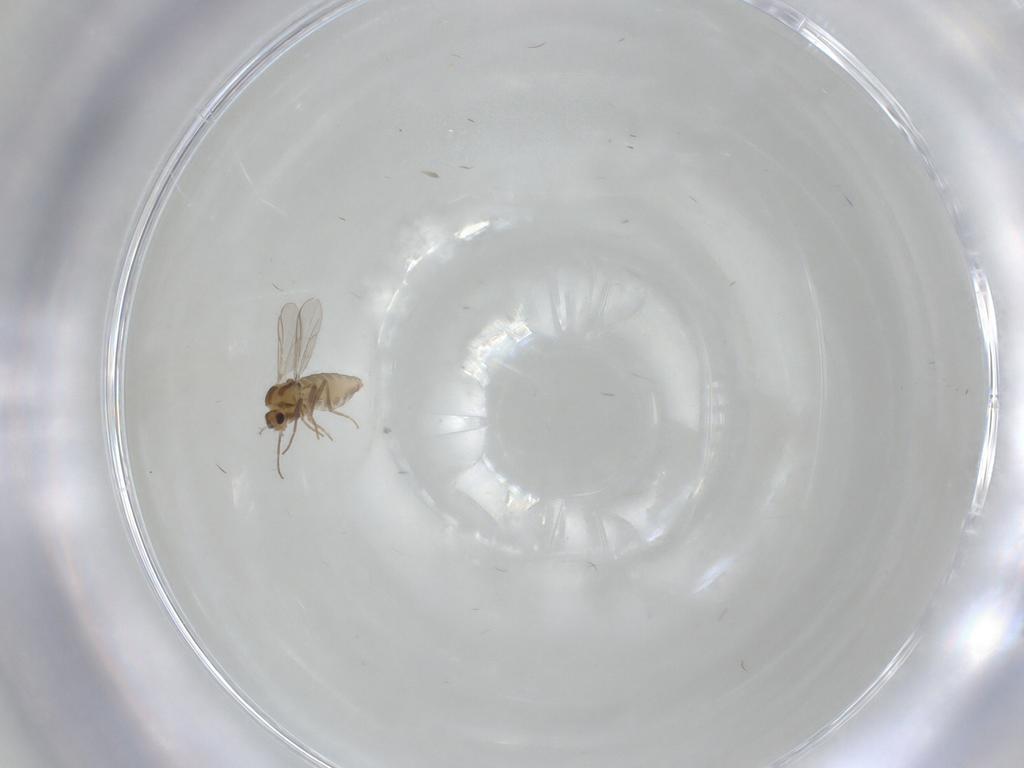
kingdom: Animalia
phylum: Arthropoda
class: Insecta
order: Diptera
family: Chironomidae
